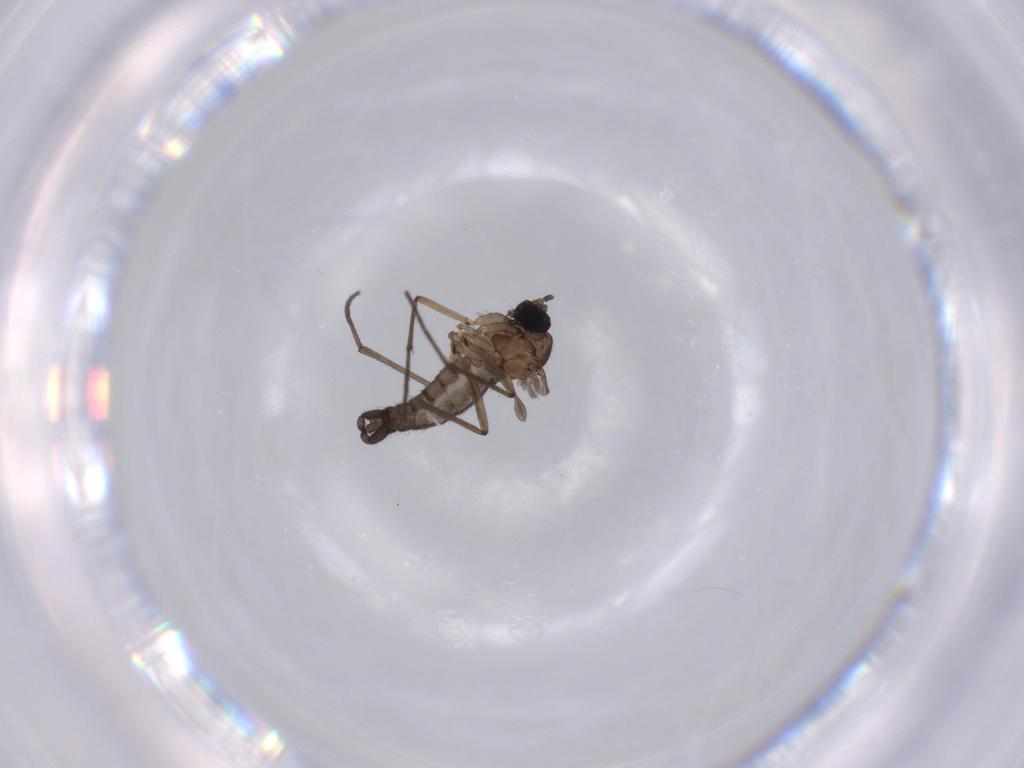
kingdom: Animalia
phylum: Arthropoda
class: Insecta
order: Diptera
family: Sciaridae
